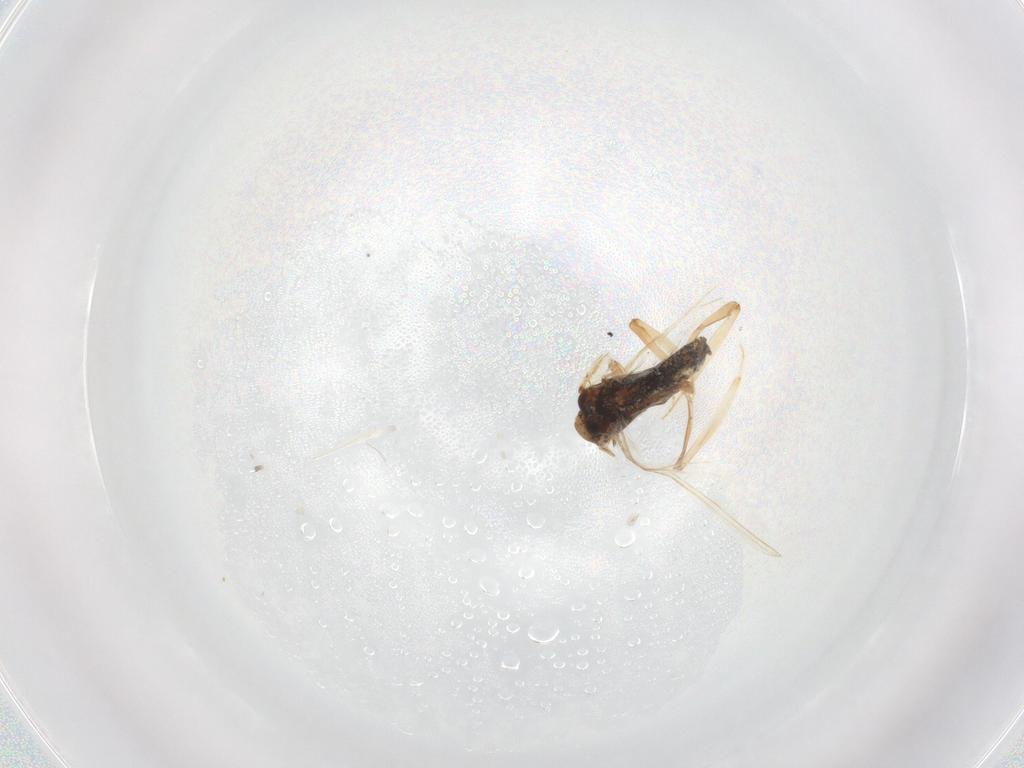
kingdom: Animalia
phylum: Arthropoda
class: Insecta
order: Neuroptera
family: Coniopterygidae
